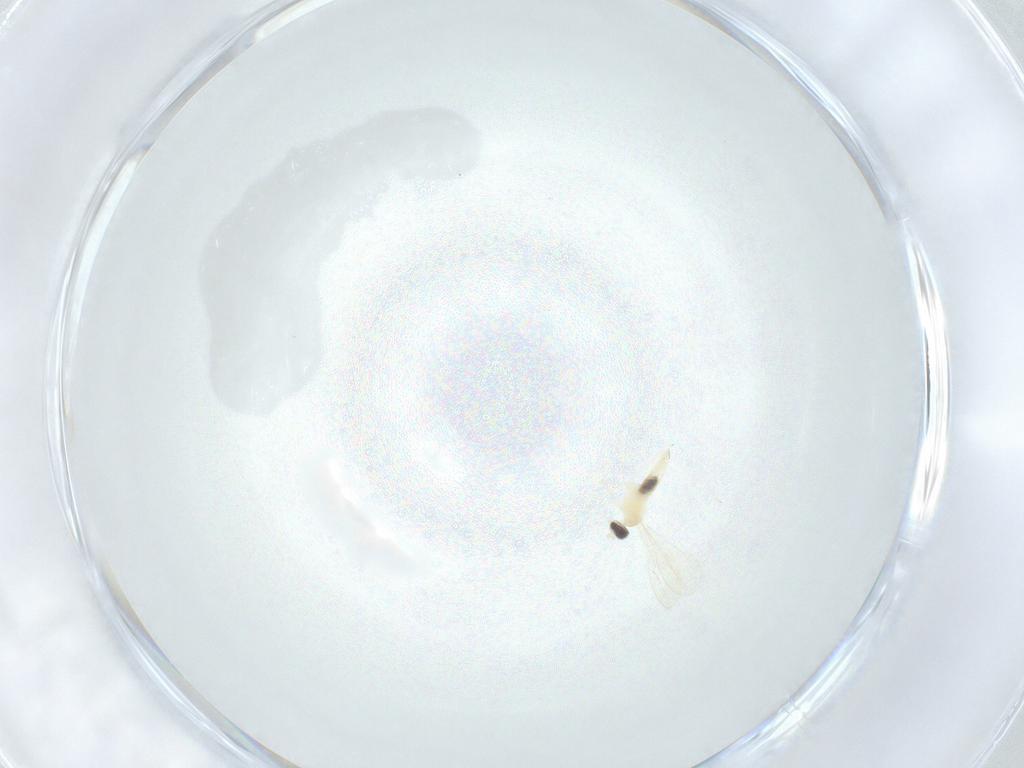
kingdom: Animalia
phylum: Arthropoda
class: Insecta
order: Diptera
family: Cecidomyiidae
